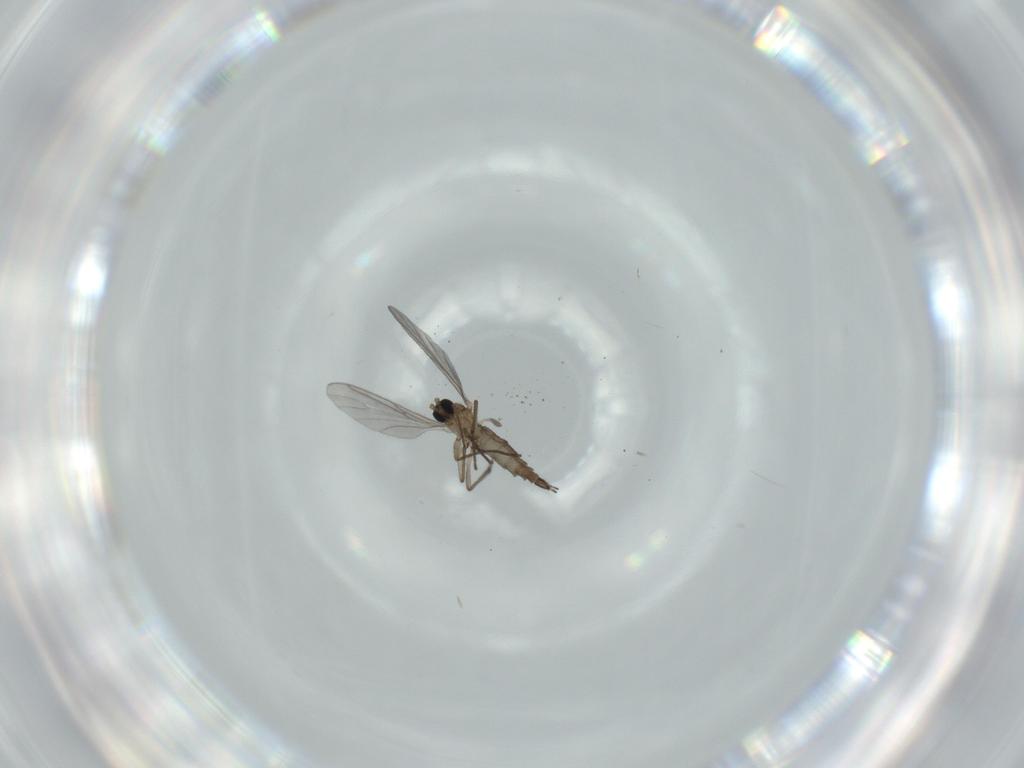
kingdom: Animalia
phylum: Arthropoda
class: Insecta
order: Diptera
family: Sciaridae
